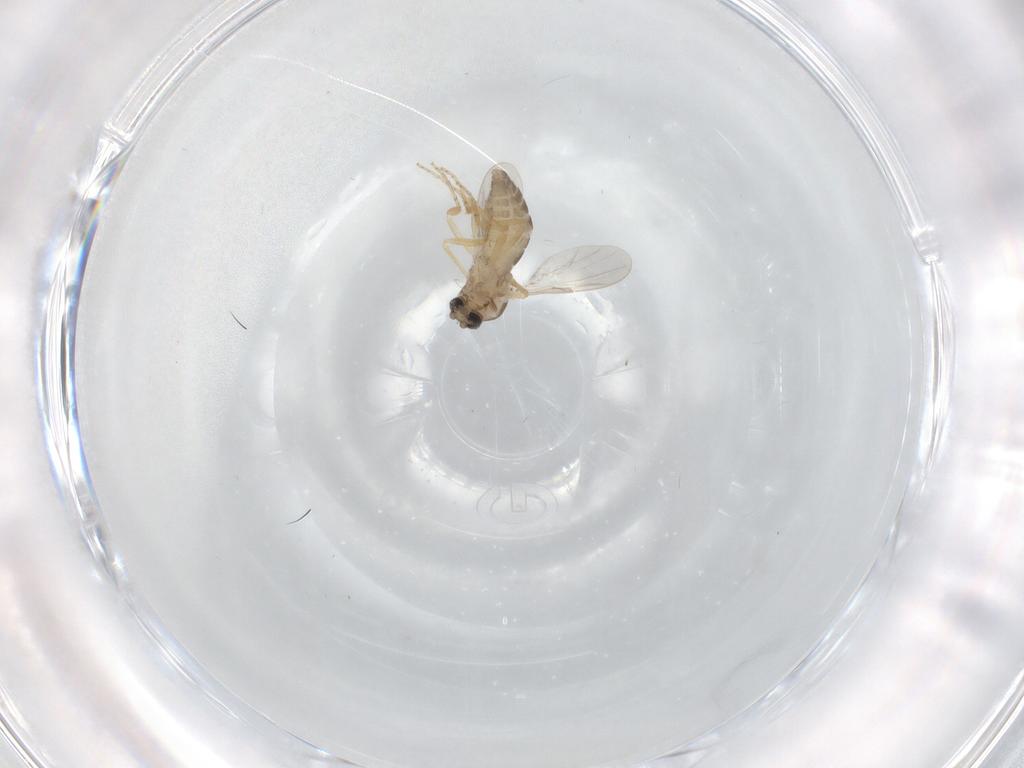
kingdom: Animalia
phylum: Arthropoda
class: Insecta
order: Diptera
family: Ceratopogonidae
